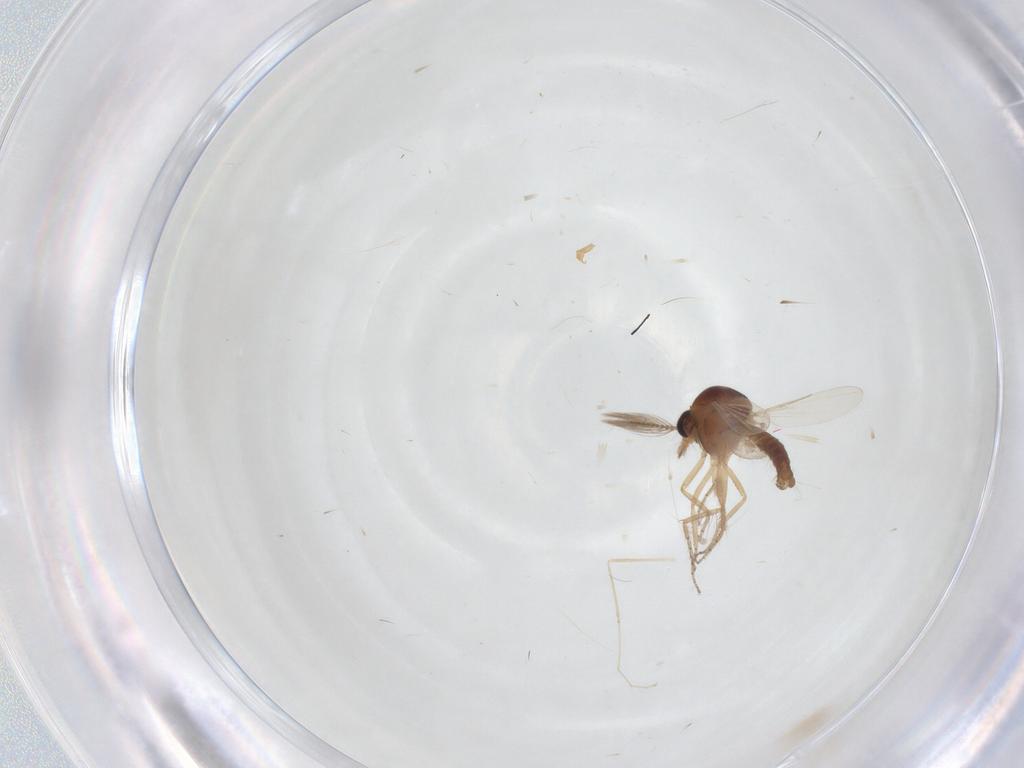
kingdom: Animalia
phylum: Arthropoda
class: Insecta
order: Diptera
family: Ceratopogonidae
